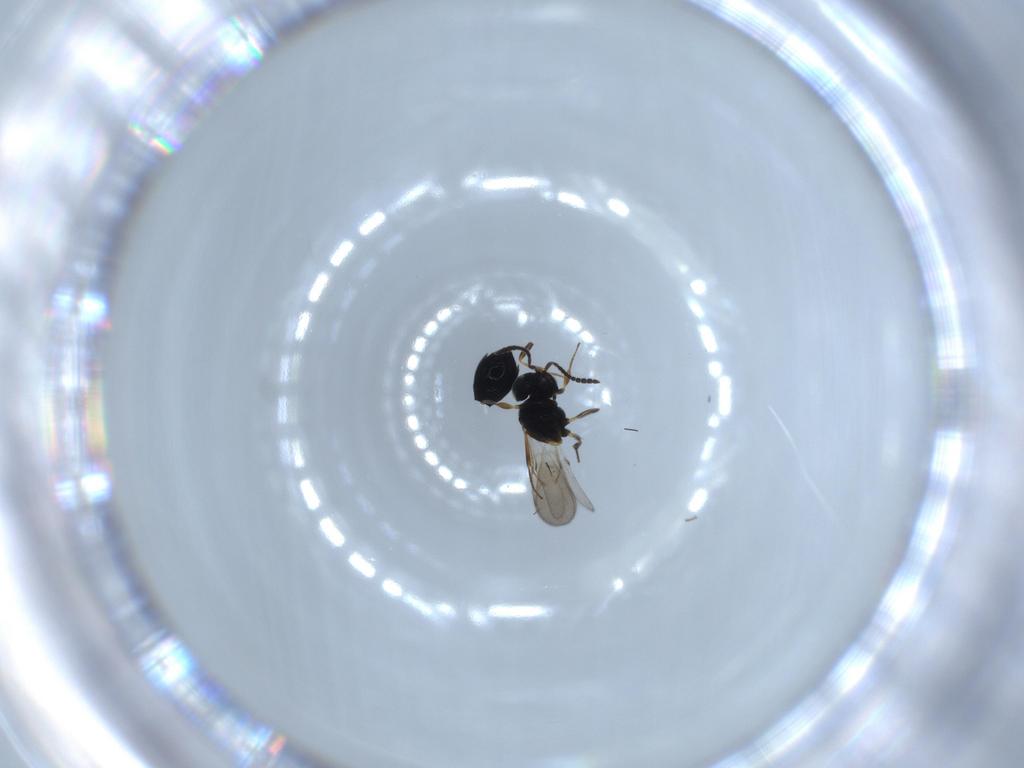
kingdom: Animalia
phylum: Arthropoda
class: Insecta
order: Hymenoptera
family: Scelionidae
